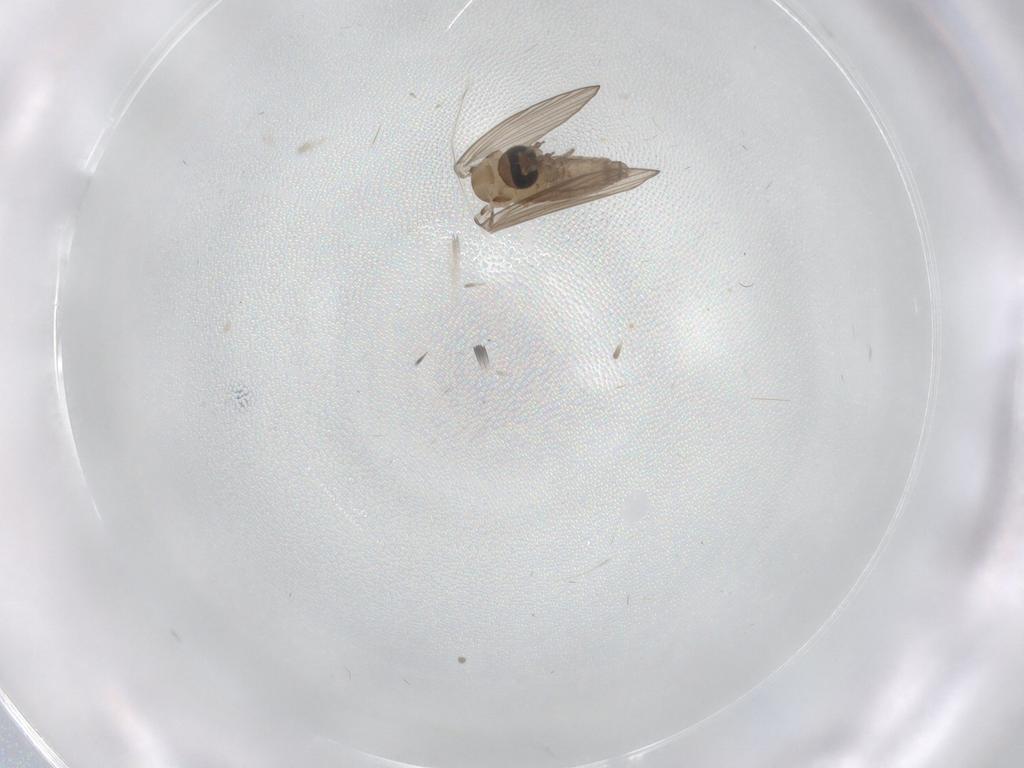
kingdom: Animalia
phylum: Arthropoda
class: Insecta
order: Diptera
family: Psychodidae
